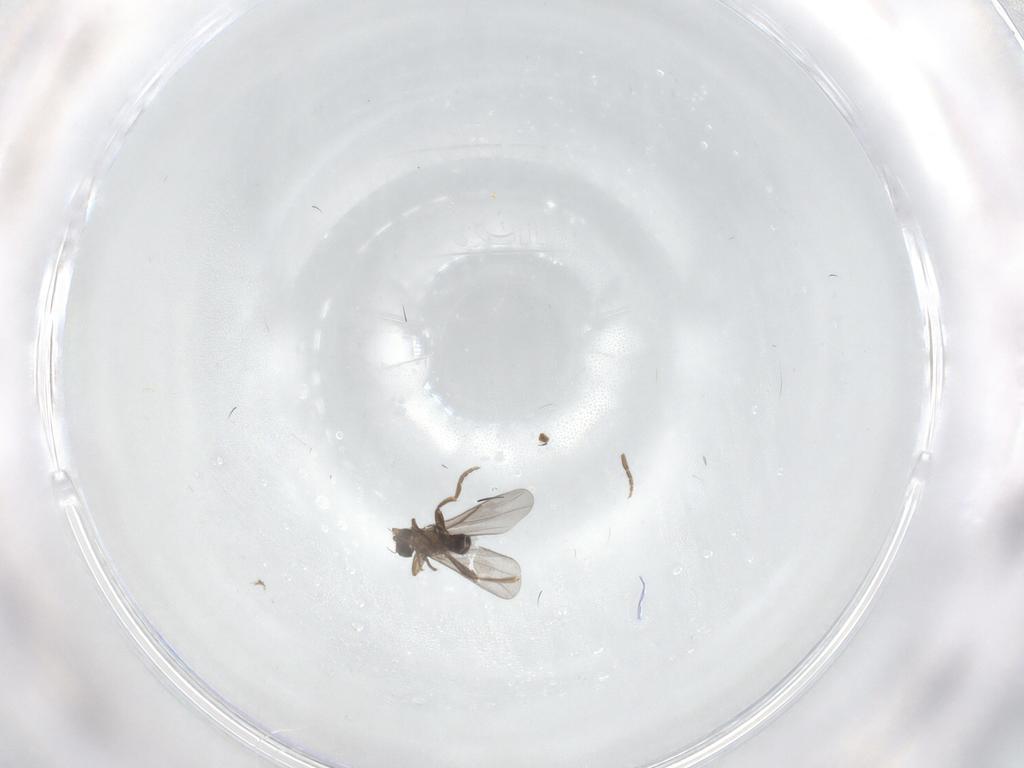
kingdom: Animalia
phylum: Arthropoda
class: Insecta
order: Diptera
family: Phoridae
